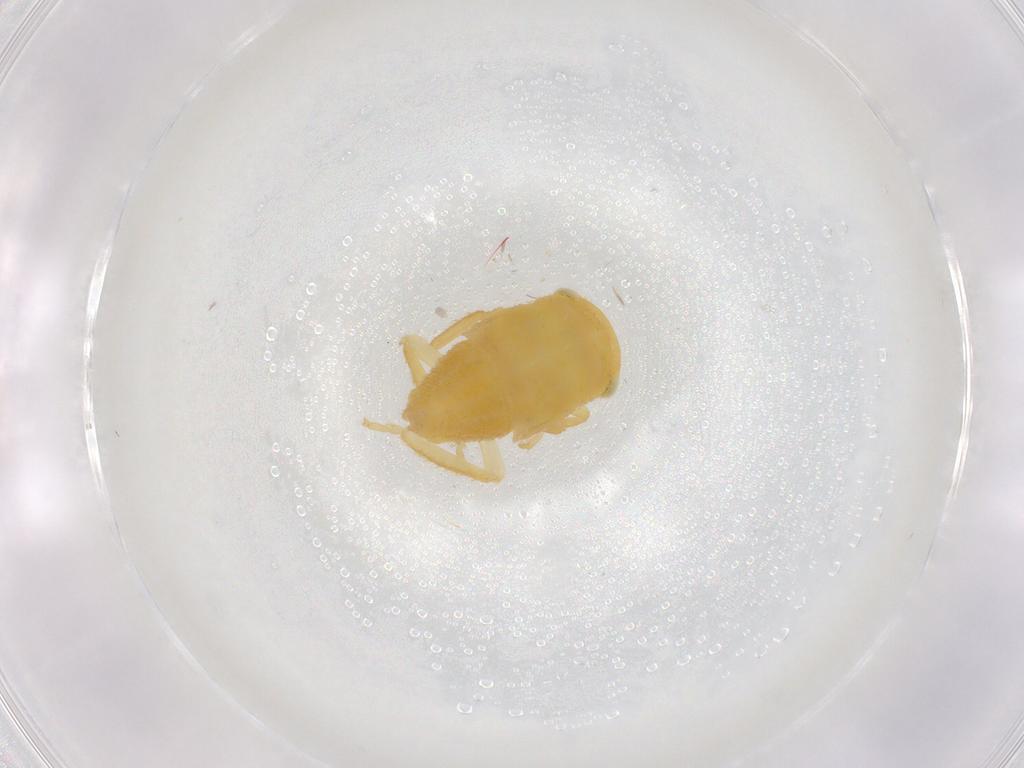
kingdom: Animalia
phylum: Arthropoda
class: Insecta
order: Hemiptera
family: Cicadellidae
